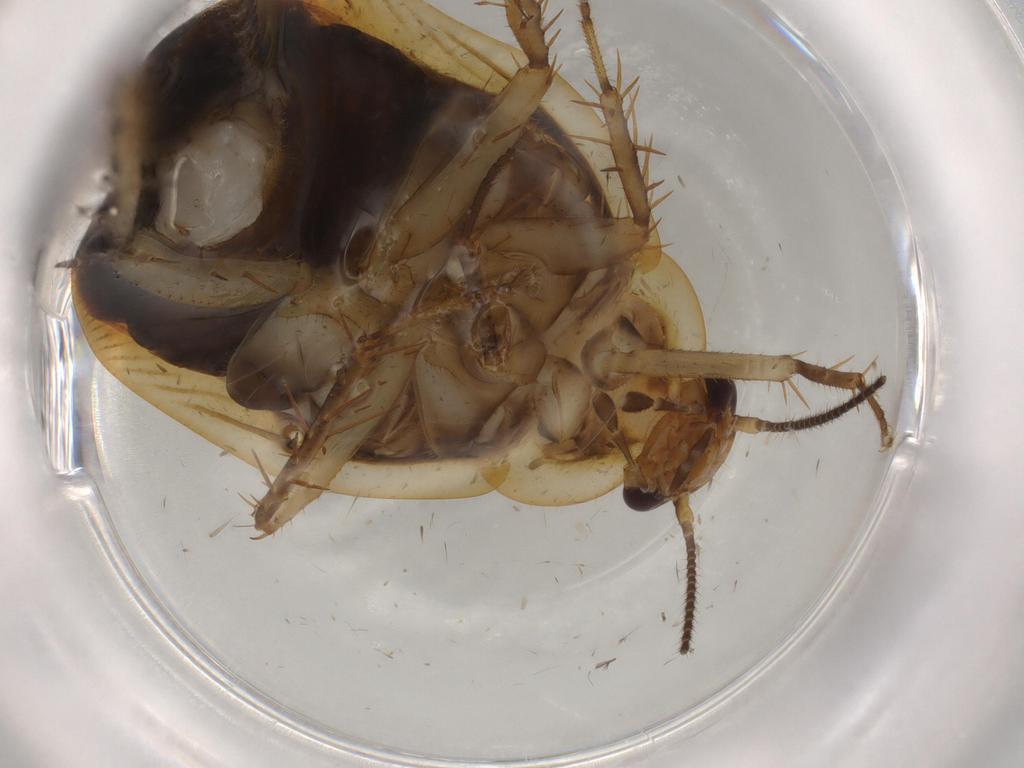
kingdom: Animalia
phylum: Arthropoda
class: Insecta
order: Blattodea
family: Ectobiidae
